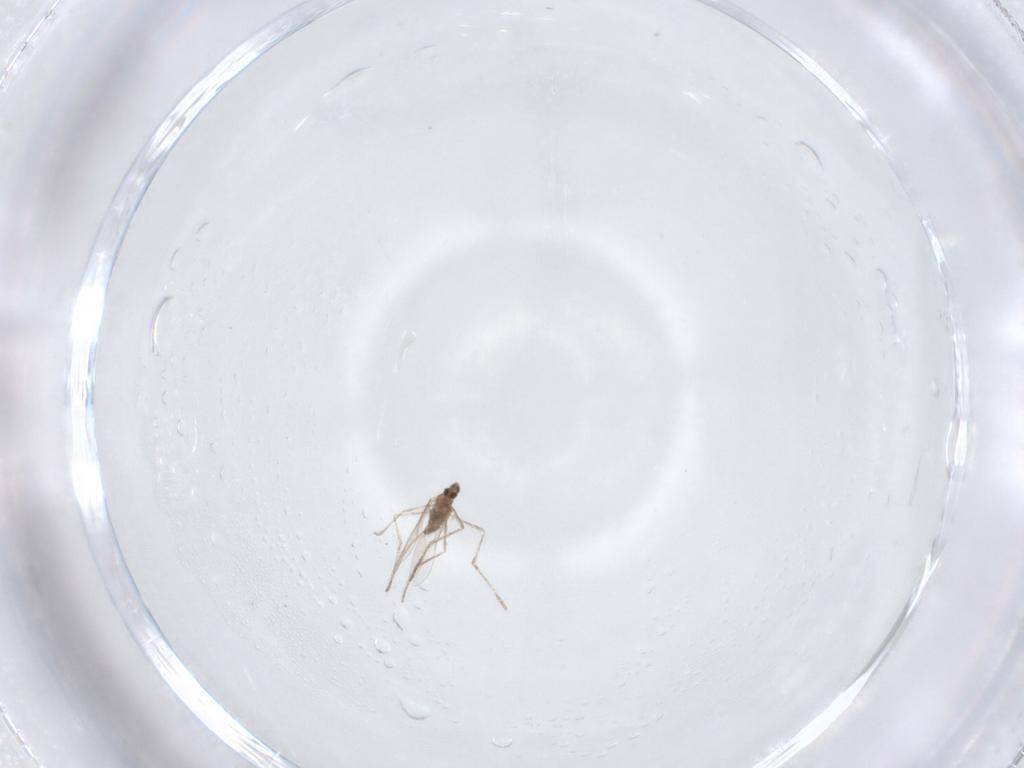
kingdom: Animalia
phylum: Arthropoda
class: Insecta
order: Diptera
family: Cecidomyiidae
